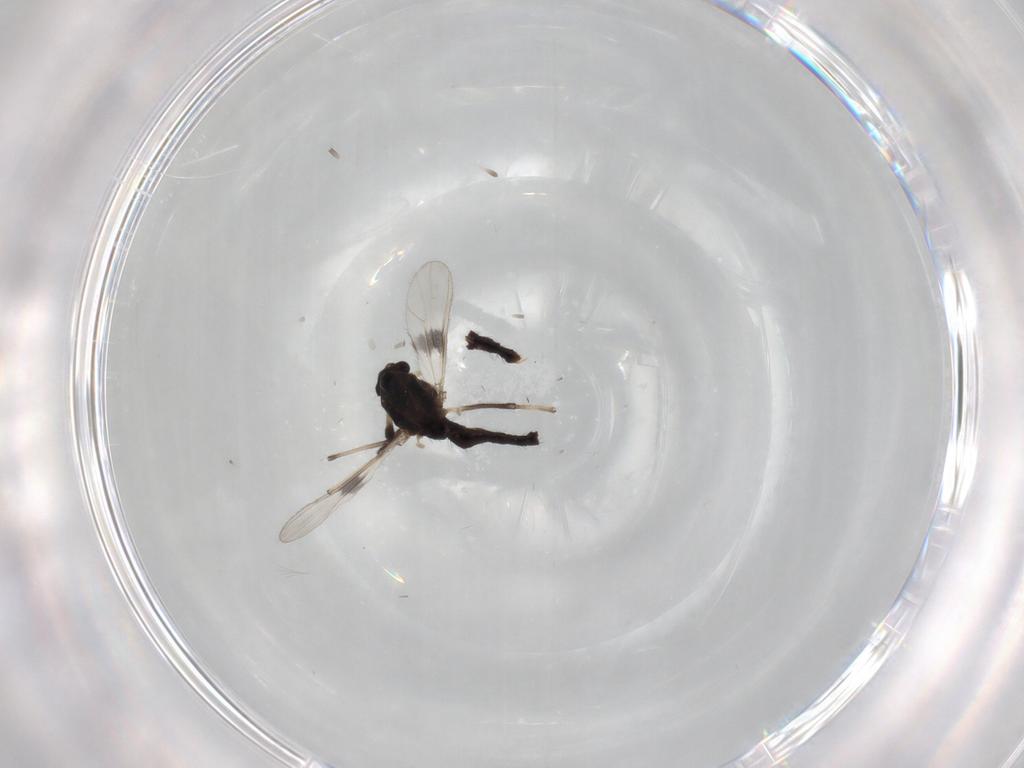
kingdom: Animalia
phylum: Arthropoda
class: Insecta
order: Diptera
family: Chironomidae
